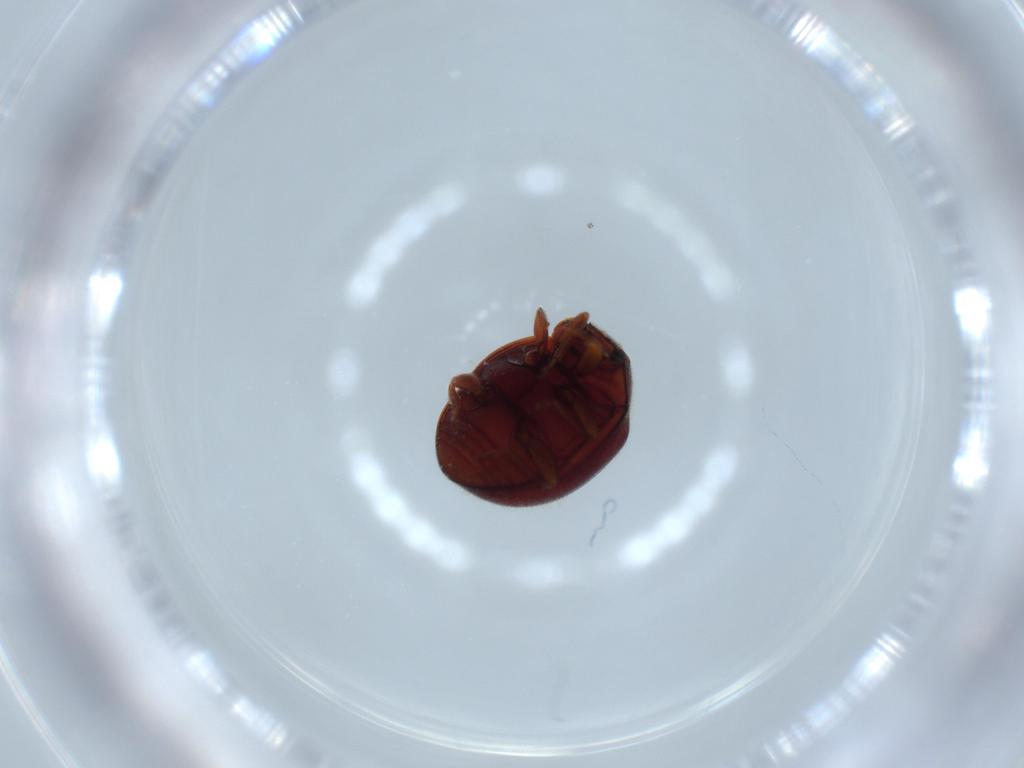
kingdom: Animalia
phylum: Arthropoda
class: Insecta
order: Coleoptera
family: Coccinellidae
